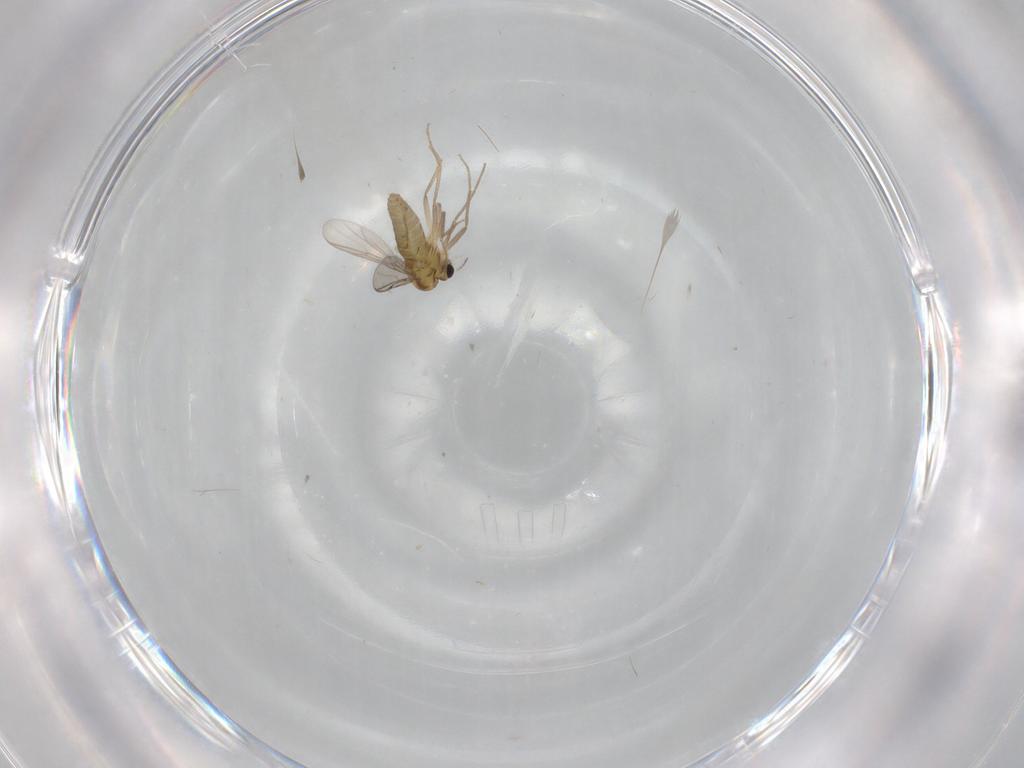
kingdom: Animalia
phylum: Arthropoda
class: Insecta
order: Diptera
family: Chironomidae
